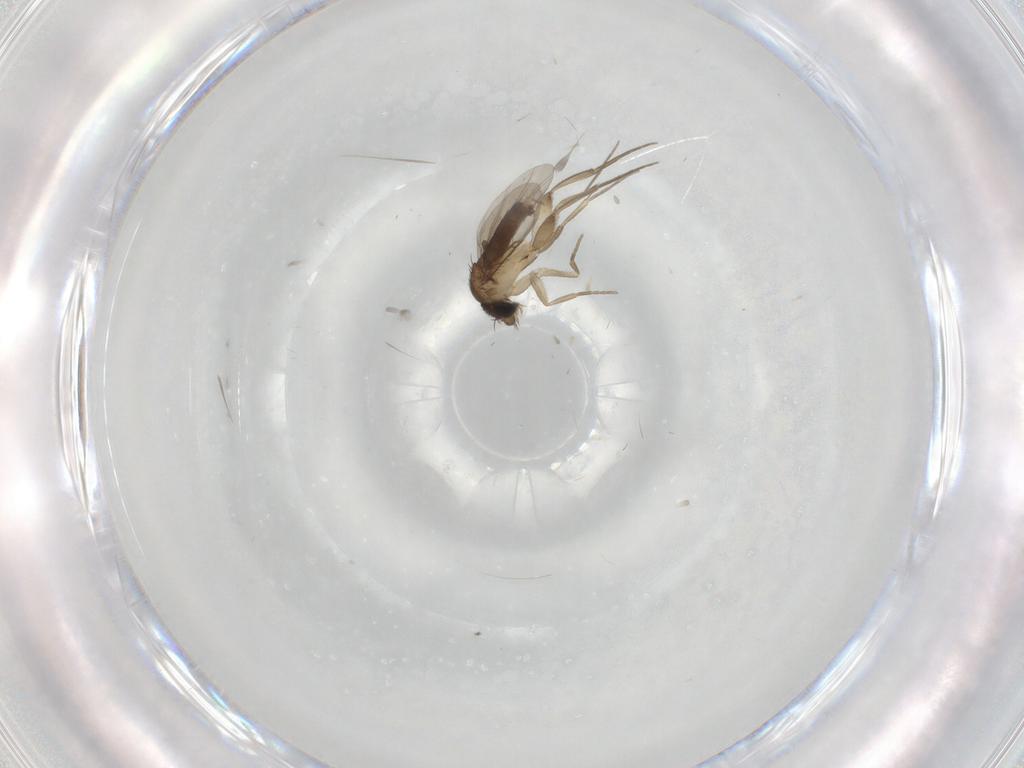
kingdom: Animalia
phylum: Arthropoda
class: Insecta
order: Diptera
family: Phoridae
